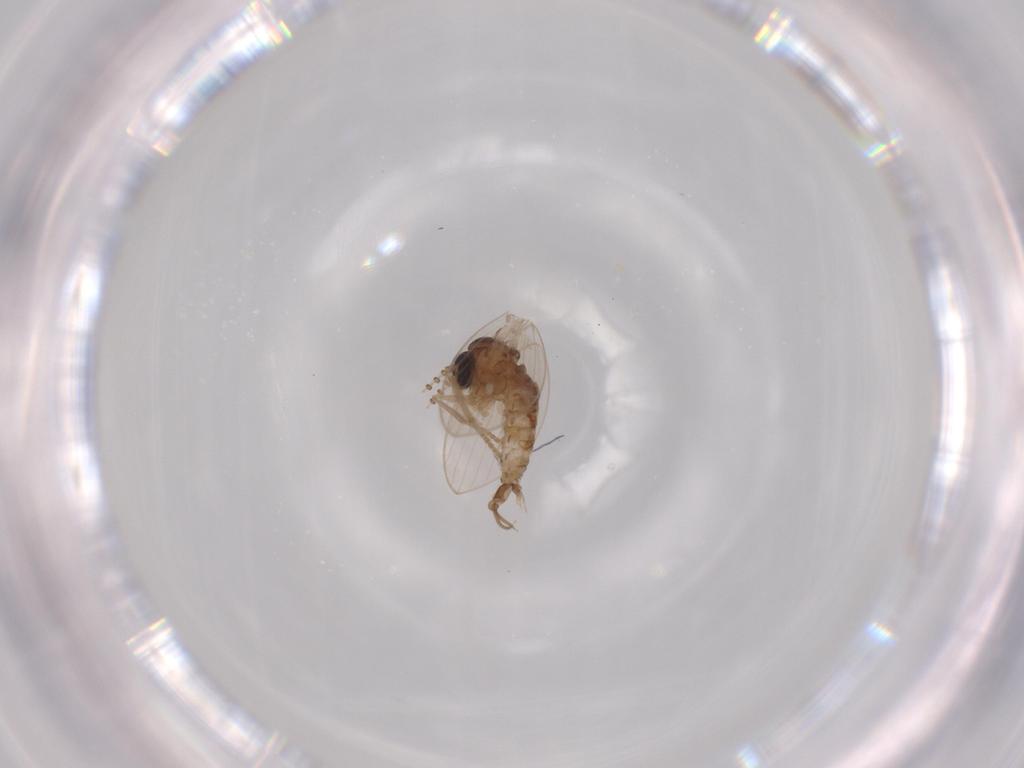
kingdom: Animalia
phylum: Arthropoda
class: Insecta
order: Diptera
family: Psychodidae
